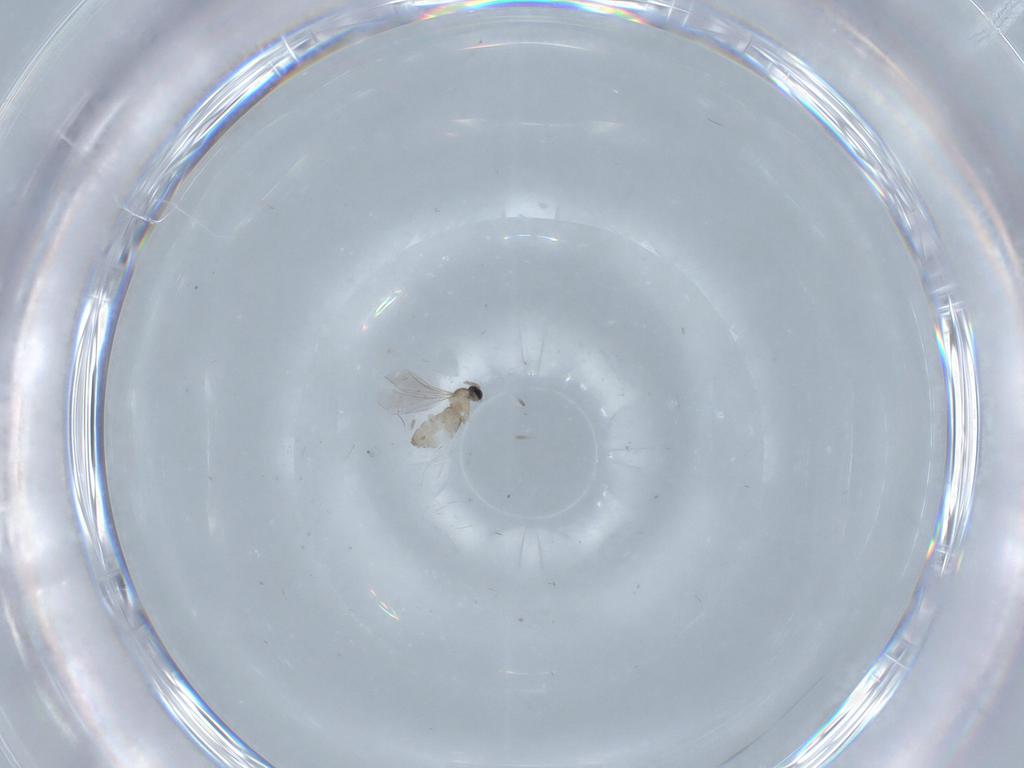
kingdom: Animalia
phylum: Arthropoda
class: Insecta
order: Diptera
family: Cecidomyiidae
